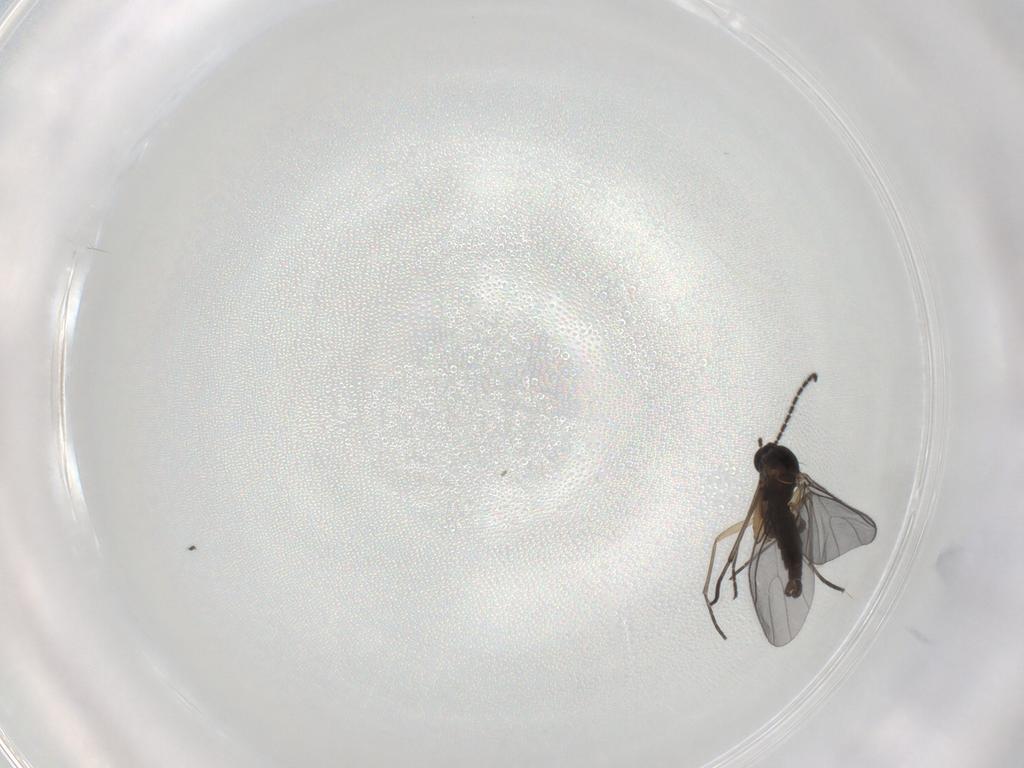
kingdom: Animalia
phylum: Arthropoda
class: Insecta
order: Diptera
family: Sciaridae
